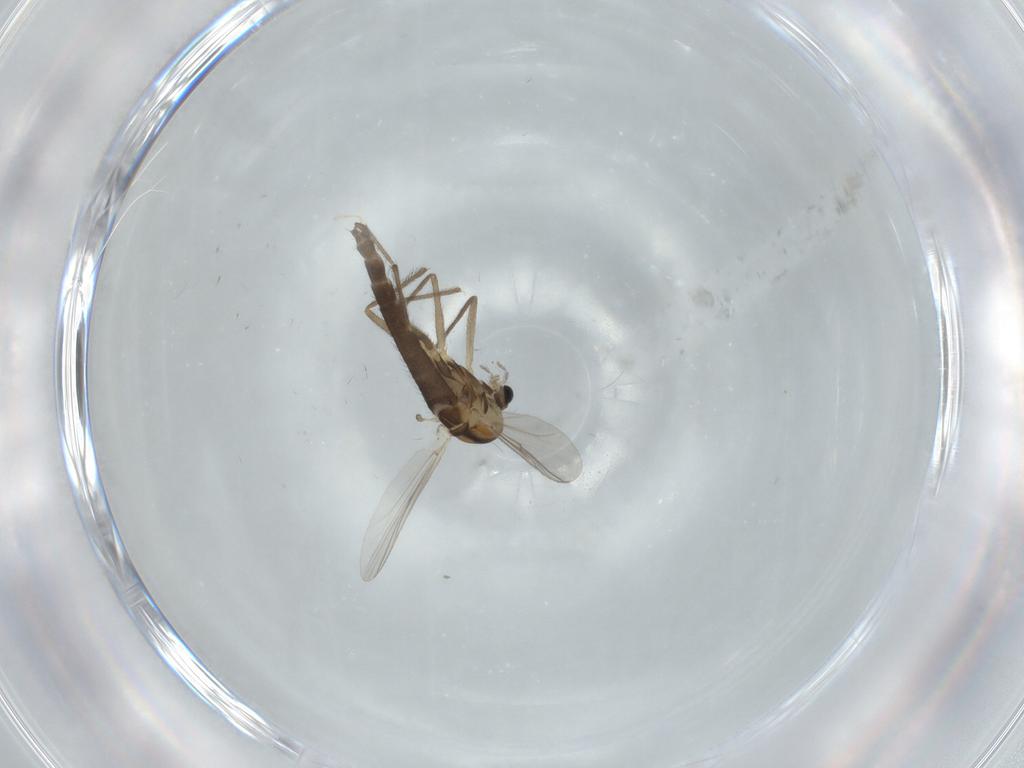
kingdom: Animalia
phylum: Arthropoda
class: Insecta
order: Diptera
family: Chironomidae
